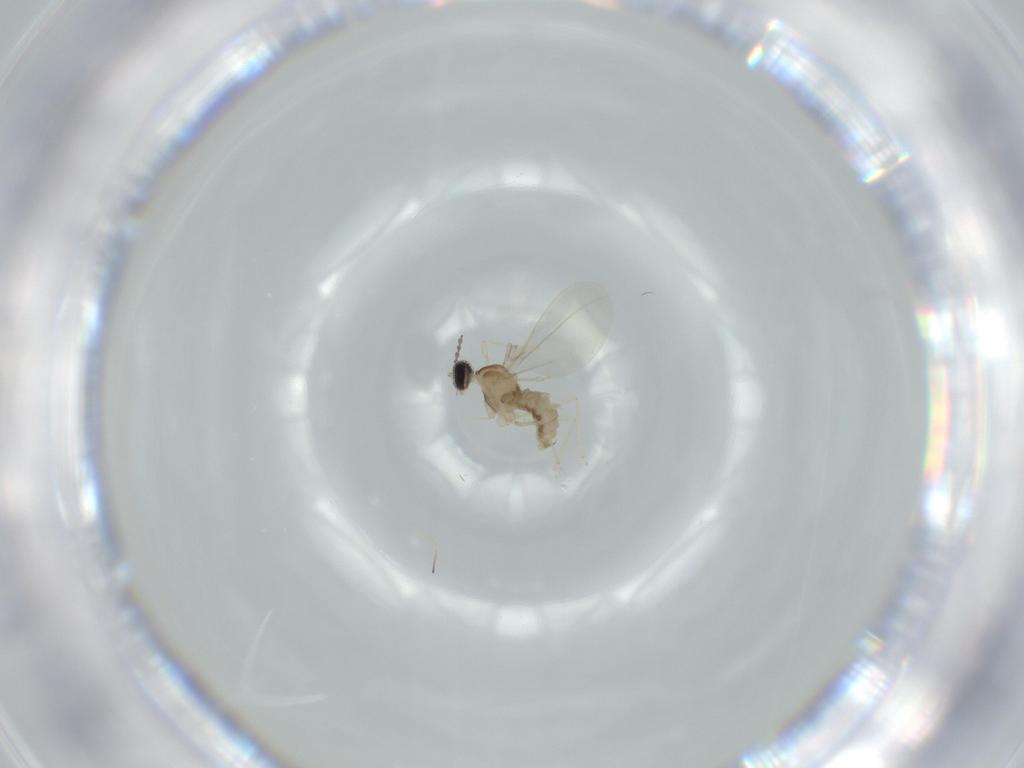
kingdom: Animalia
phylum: Arthropoda
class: Insecta
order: Diptera
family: Cecidomyiidae
